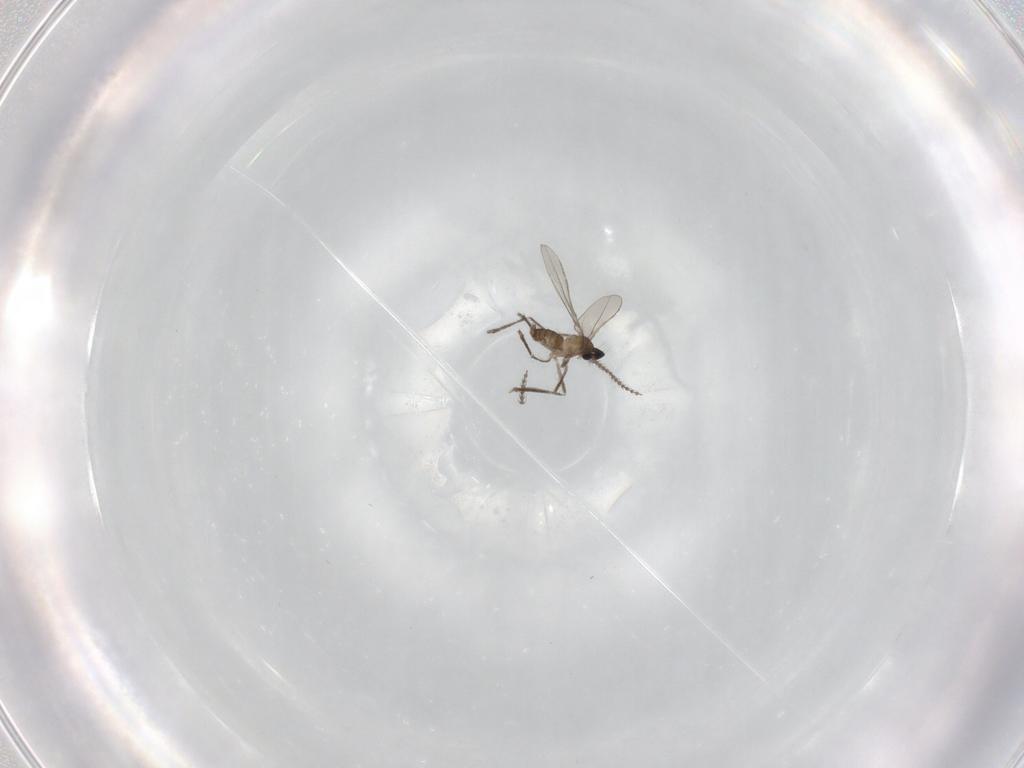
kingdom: Animalia
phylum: Arthropoda
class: Insecta
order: Diptera
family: Cecidomyiidae
